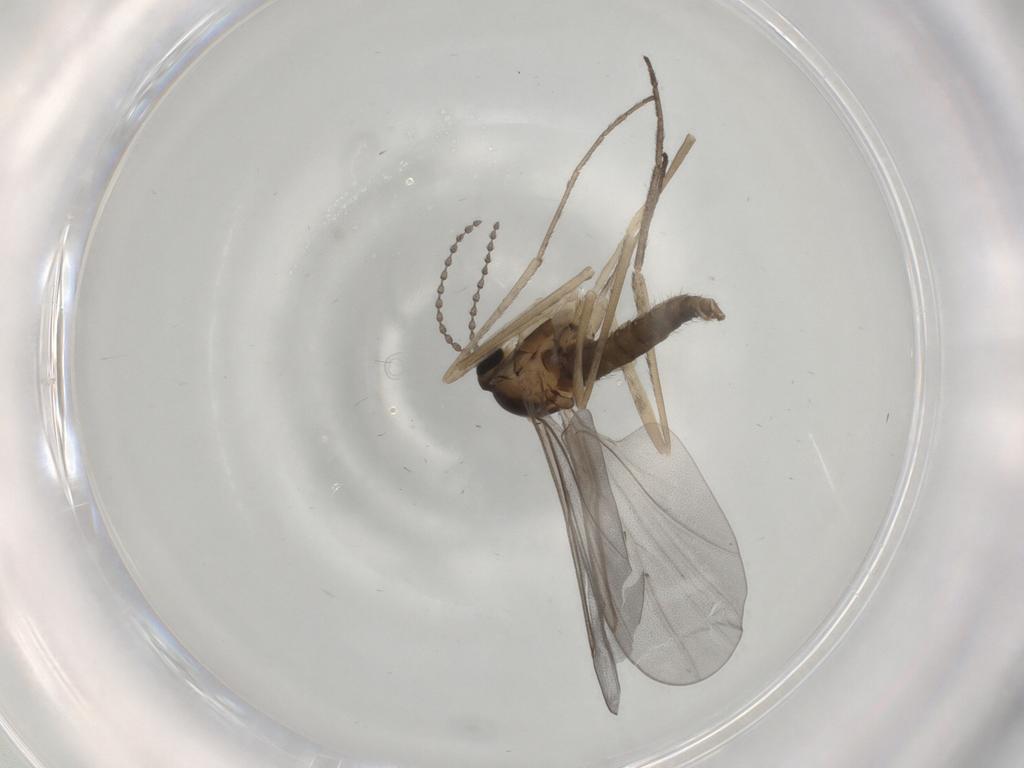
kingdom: Animalia
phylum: Arthropoda
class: Insecta
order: Diptera
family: Cecidomyiidae
